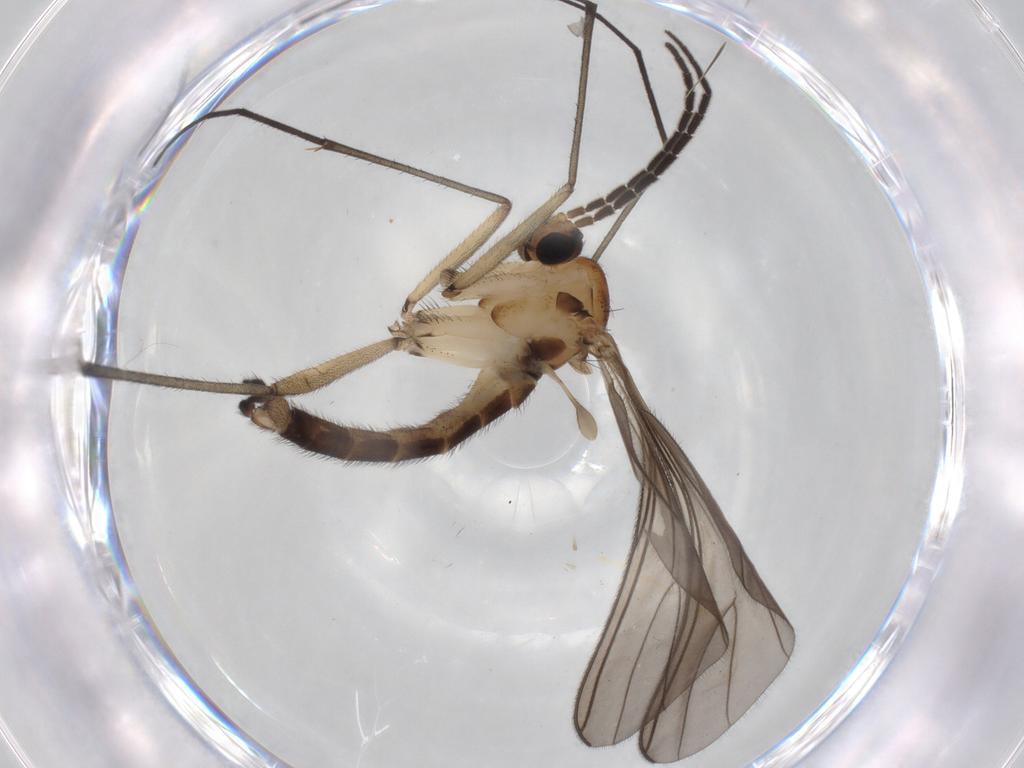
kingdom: Animalia
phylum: Arthropoda
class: Insecta
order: Diptera
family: Sciaridae
